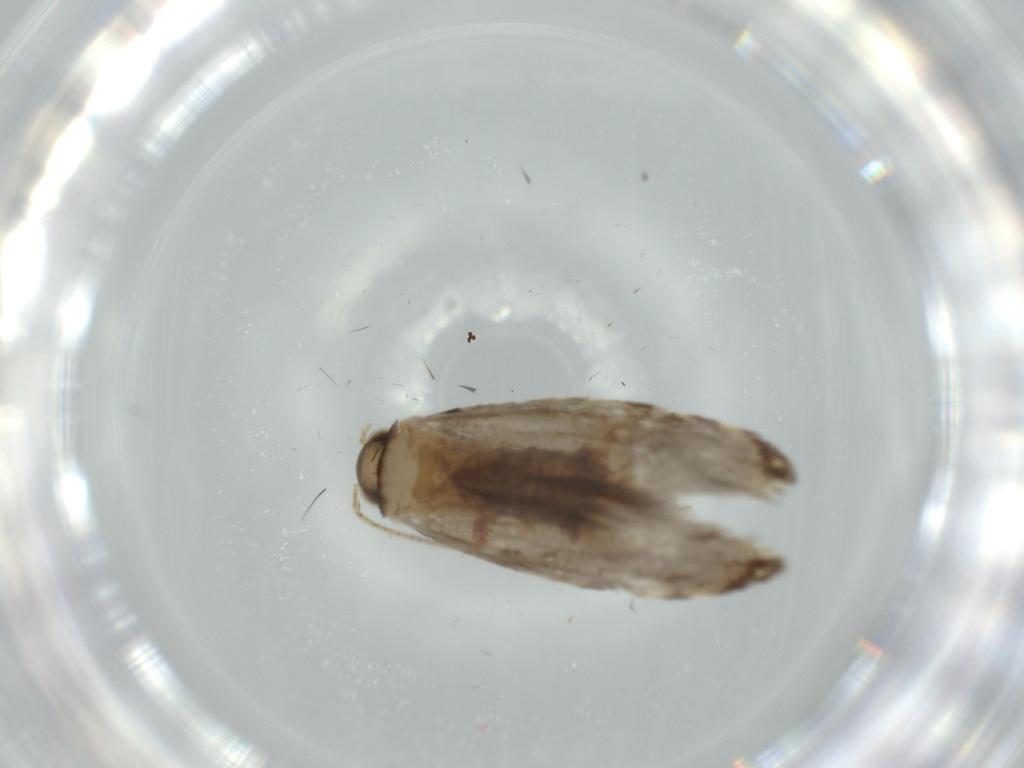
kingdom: Animalia
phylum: Arthropoda
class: Insecta
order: Lepidoptera
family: Tineidae
